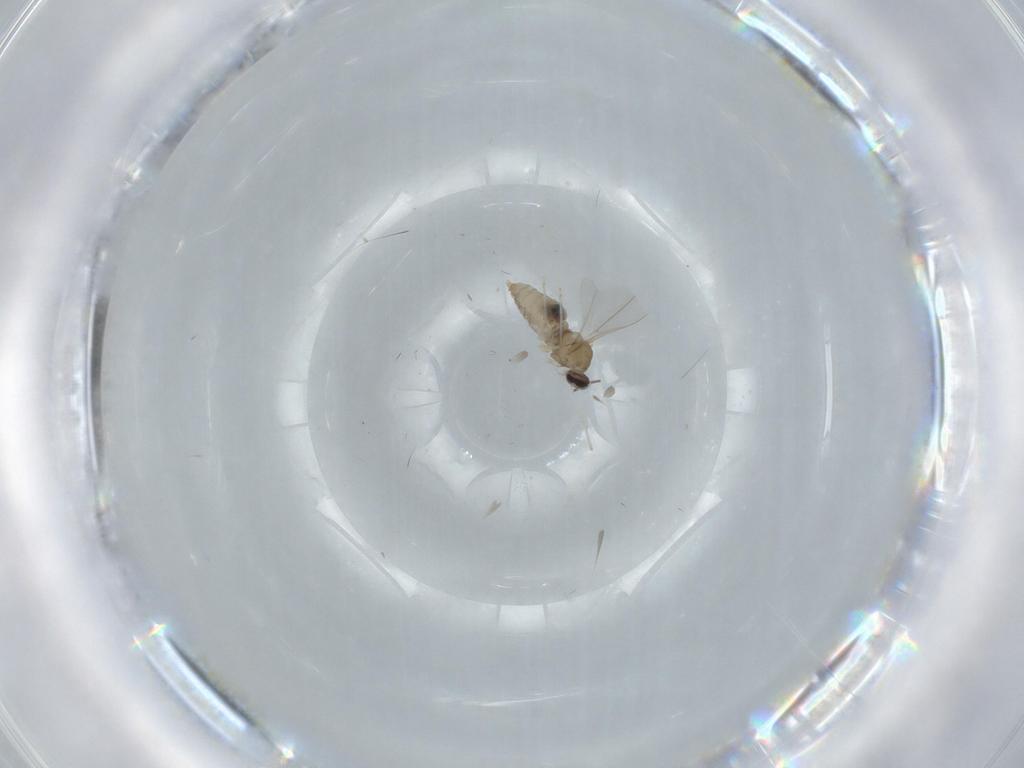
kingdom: Animalia
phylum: Arthropoda
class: Insecta
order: Diptera
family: Cecidomyiidae
